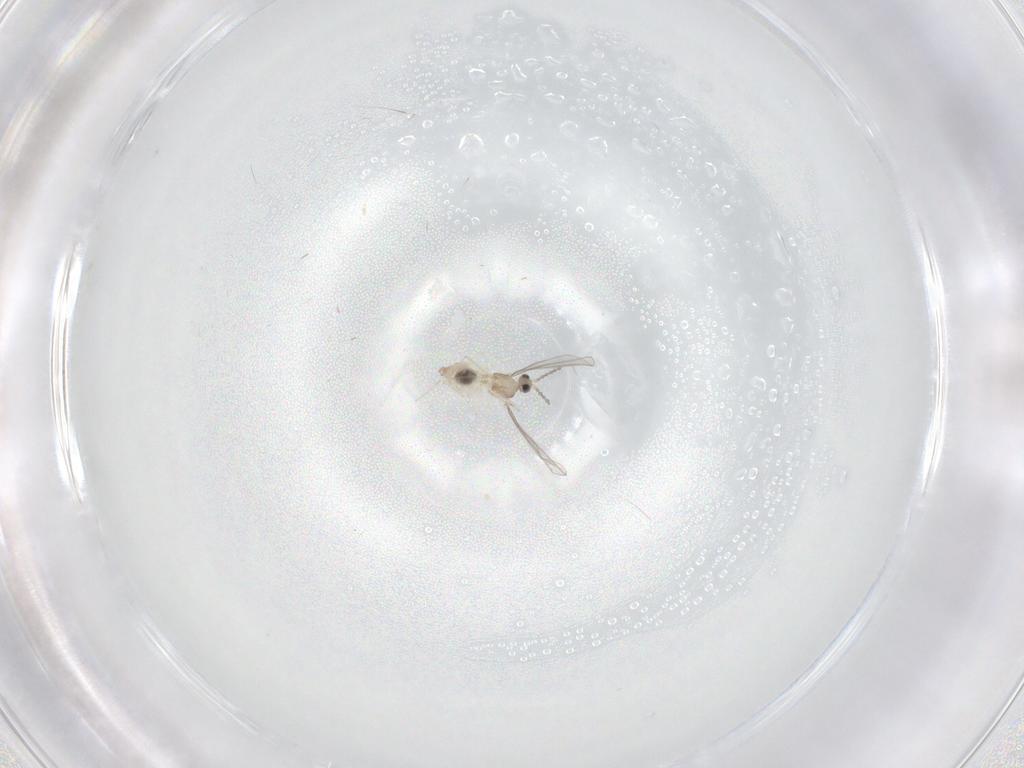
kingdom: Animalia
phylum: Arthropoda
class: Insecta
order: Diptera
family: Cecidomyiidae
